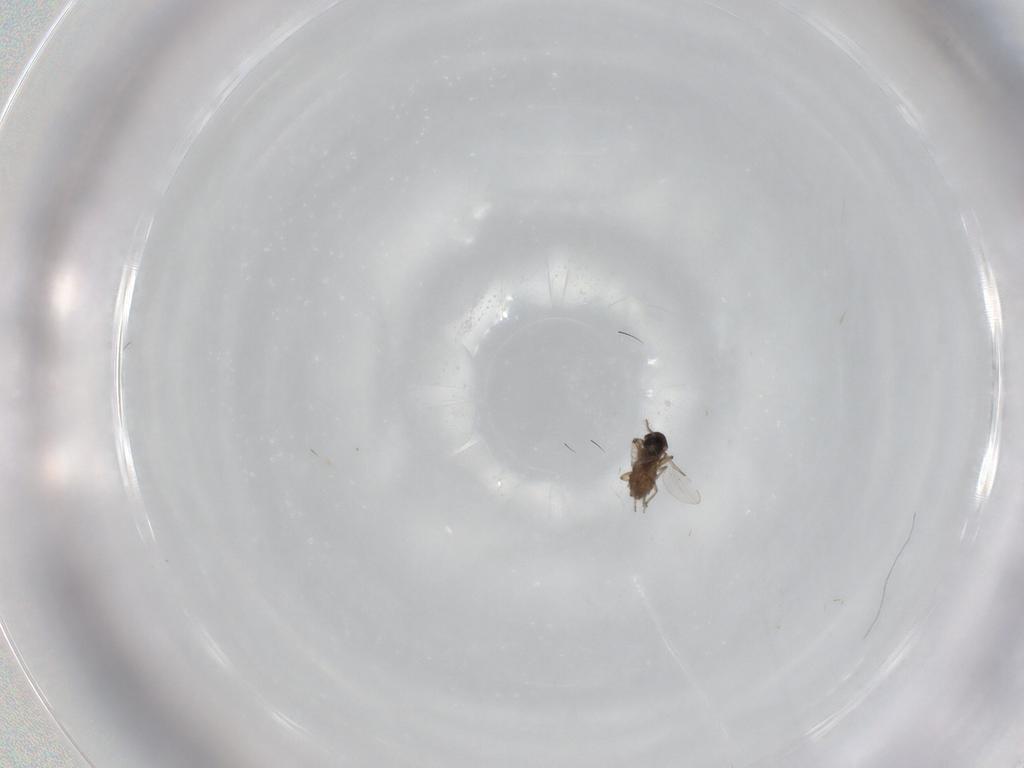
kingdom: Animalia
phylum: Arthropoda
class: Insecta
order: Diptera
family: Ceratopogonidae
